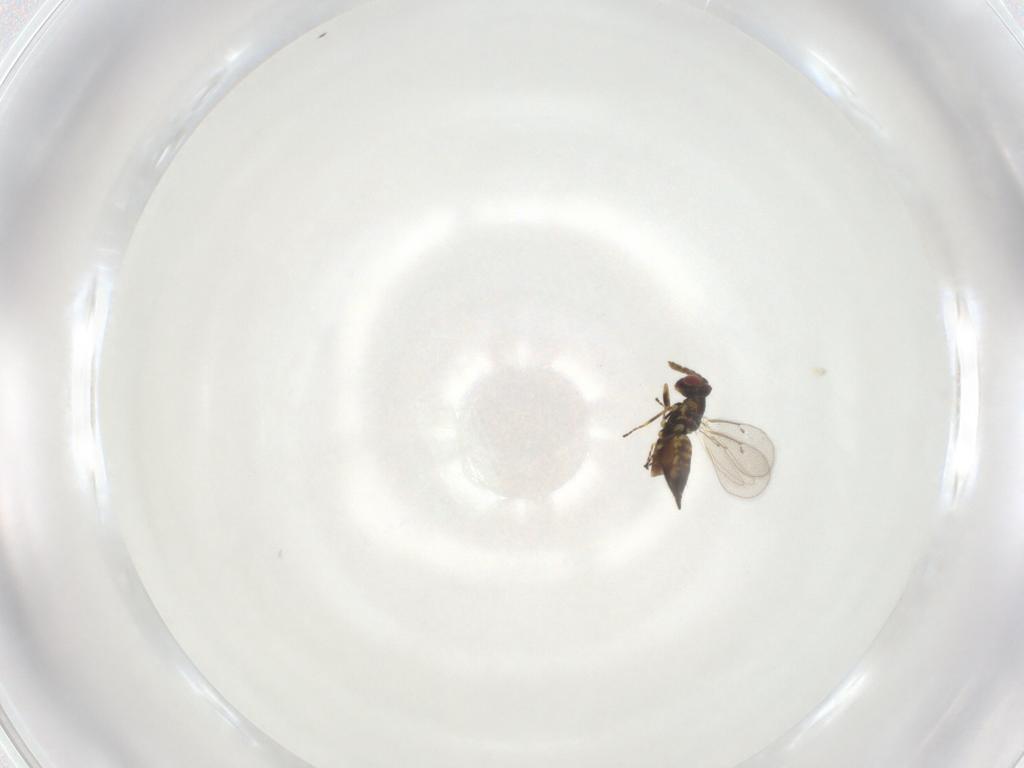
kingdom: Animalia
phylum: Arthropoda
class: Insecta
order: Hymenoptera
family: Eulophidae
